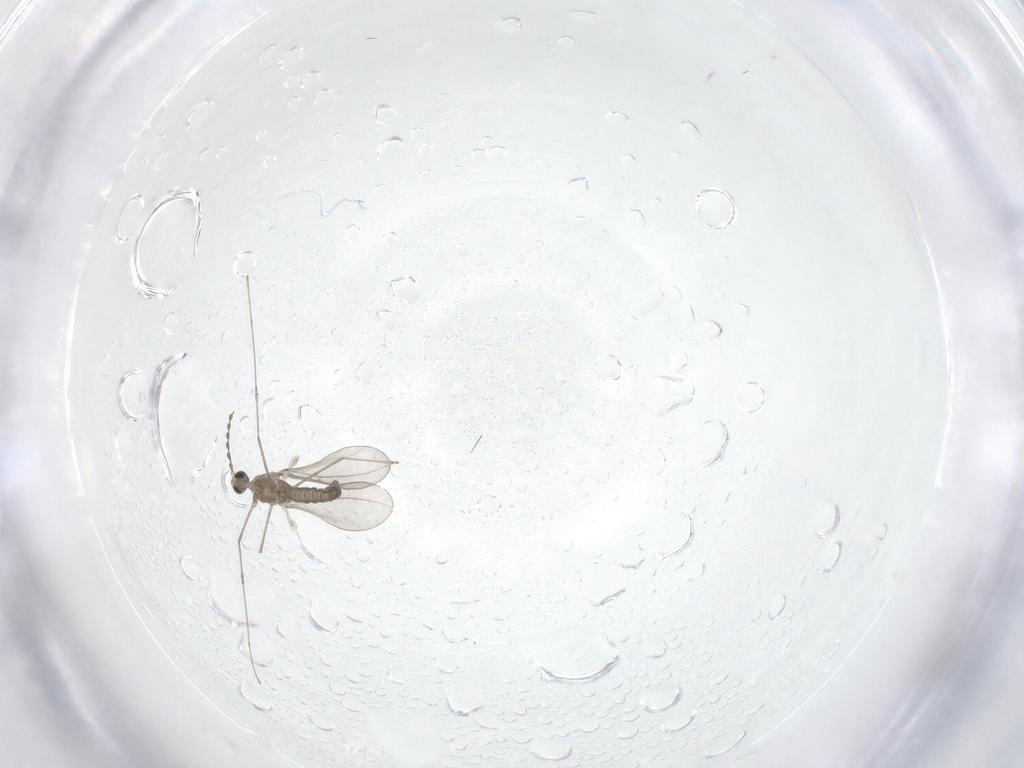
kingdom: Animalia
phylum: Arthropoda
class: Insecta
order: Diptera
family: Cecidomyiidae
